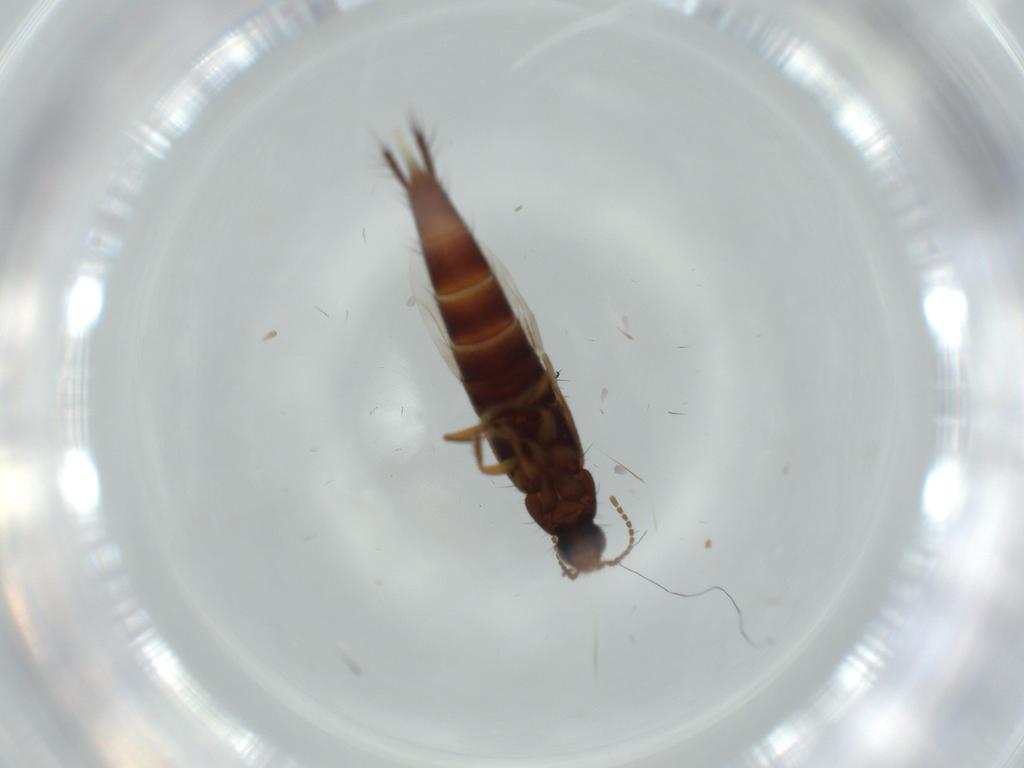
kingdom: Animalia
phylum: Arthropoda
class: Insecta
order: Coleoptera
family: Staphylinidae
